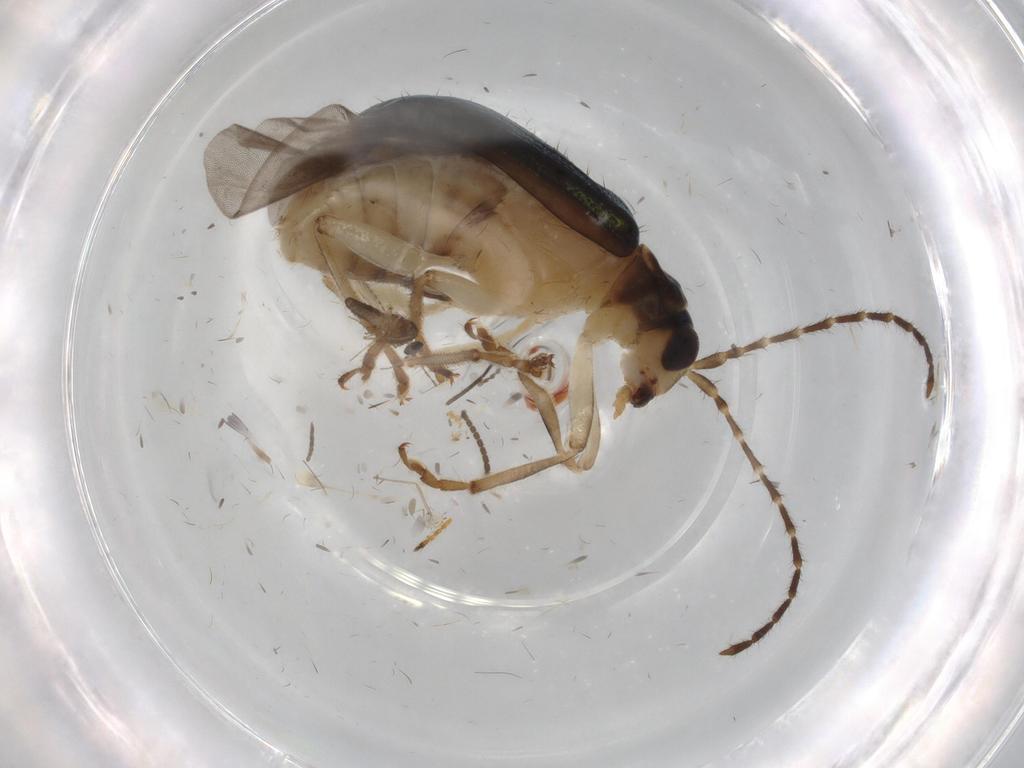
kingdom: Animalia
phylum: Arthropoda
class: Insecta
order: Coleoptera
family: Chrysomelidae
